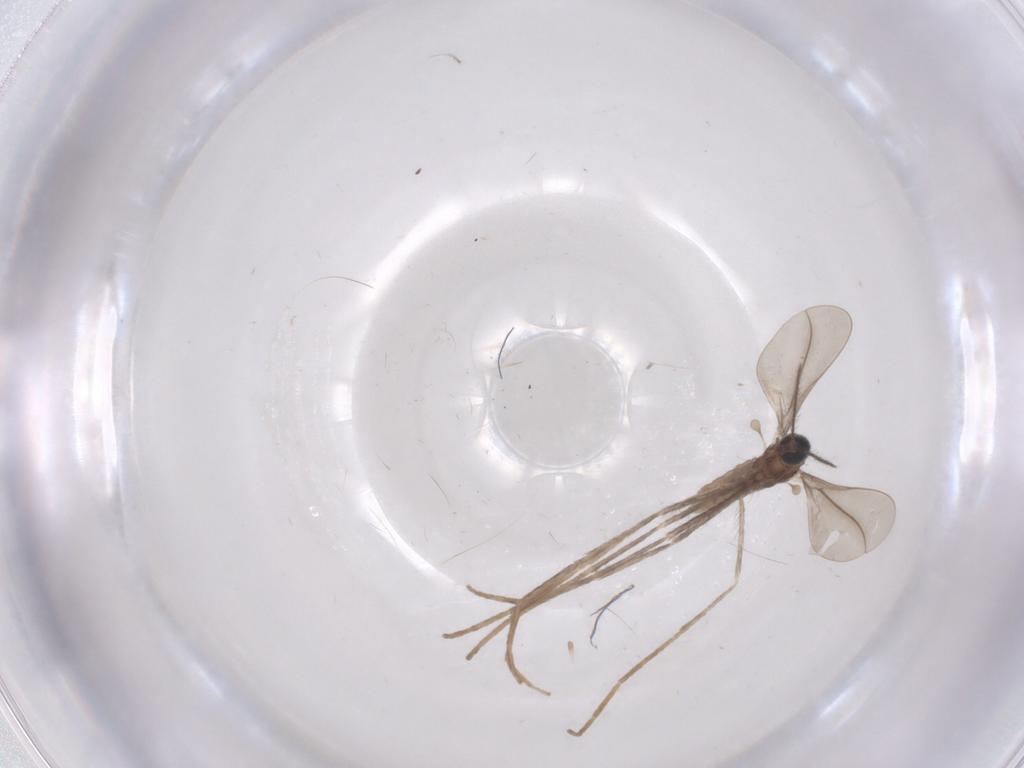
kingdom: Animalia
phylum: Arthropoda
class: Insecta
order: Diptera
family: Cecidomyiidae
